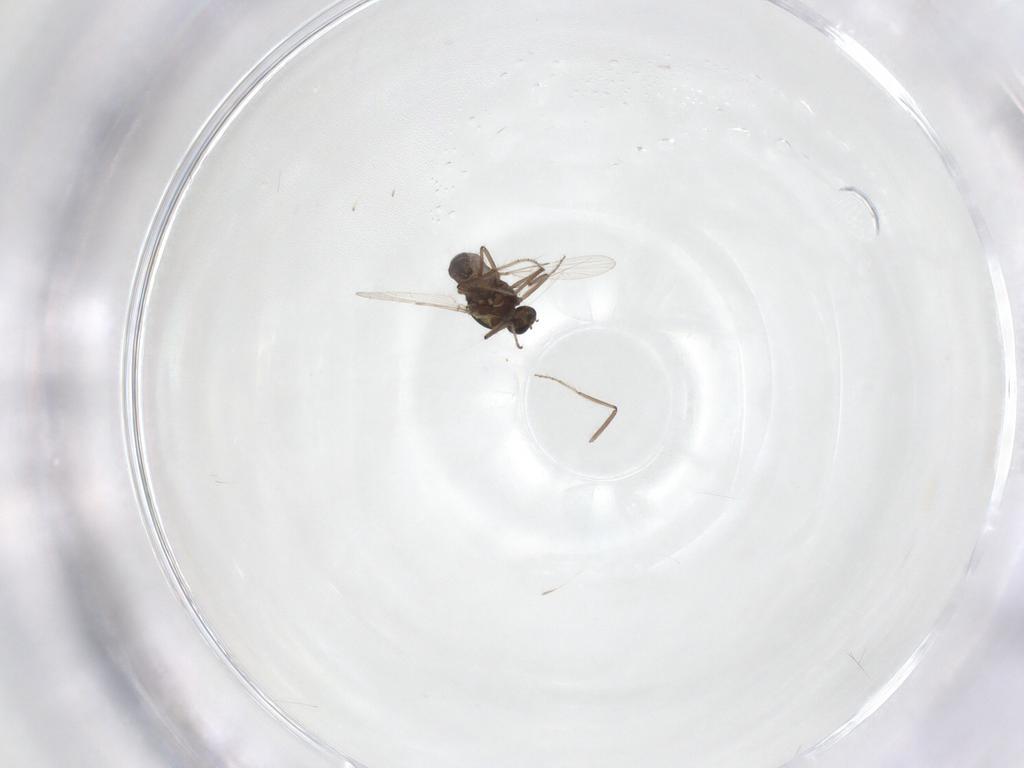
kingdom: Animalia
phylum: Arthropoda
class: Insecta
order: Diptera
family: Ceratopogonidae
